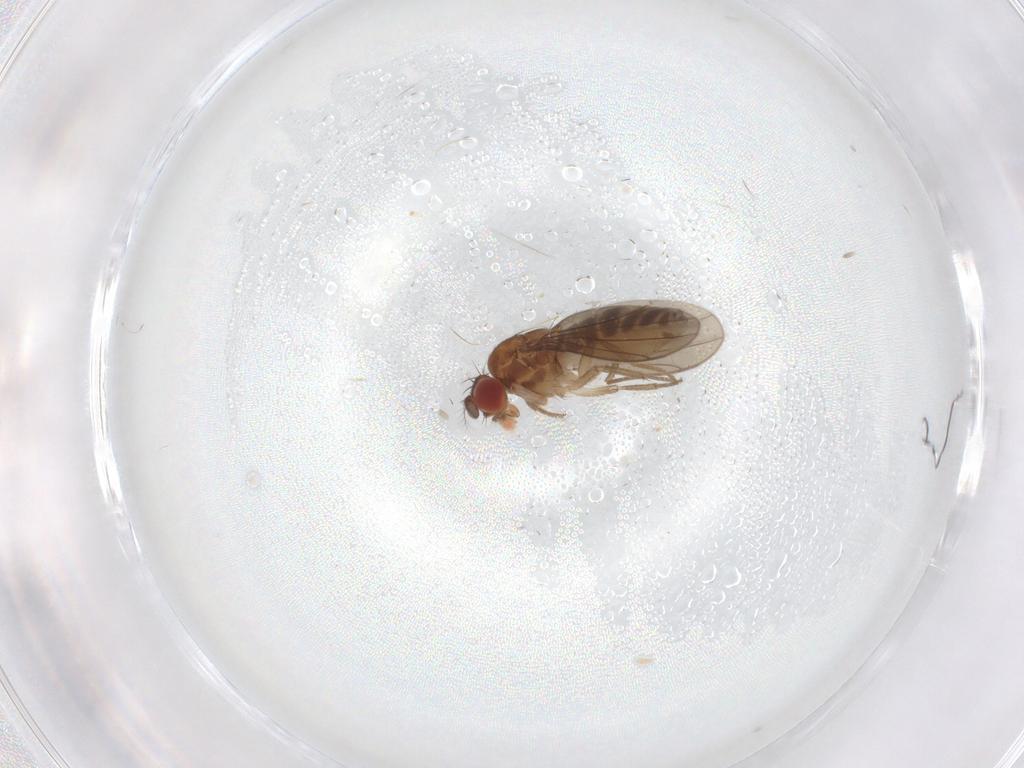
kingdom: Animalia
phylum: Arthropoda
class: Insecta
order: Diptera
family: Drosophilidae
